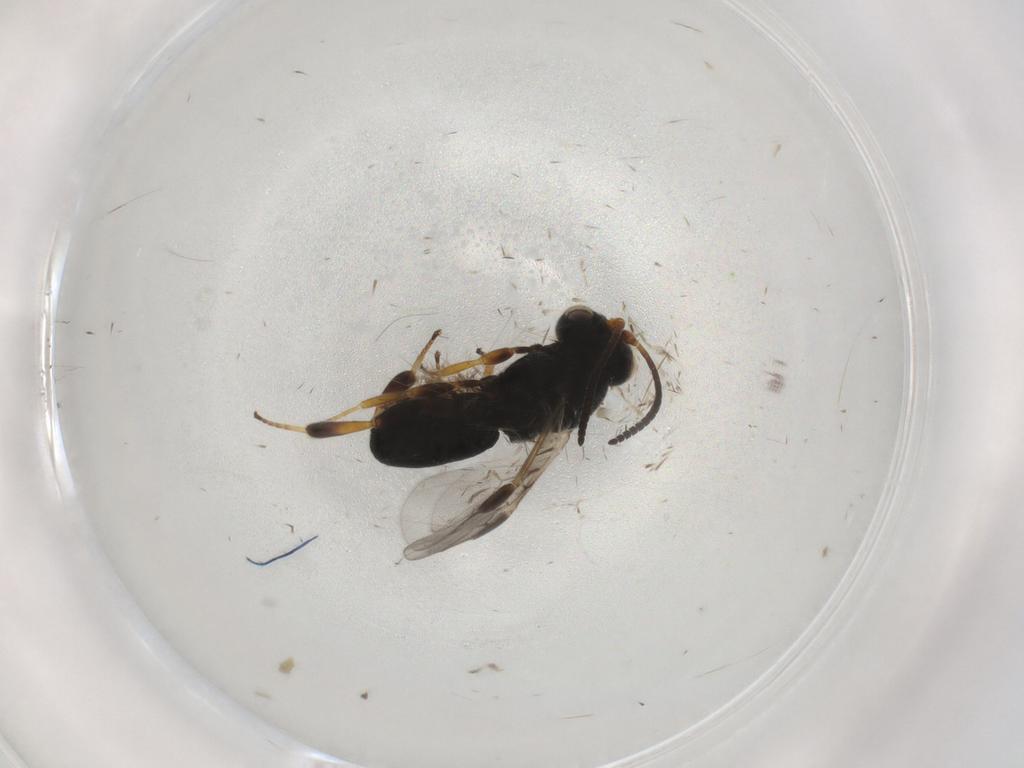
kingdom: Animalia
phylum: Arthropoda
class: Insecta
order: Hymenoptera
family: Braconidae
